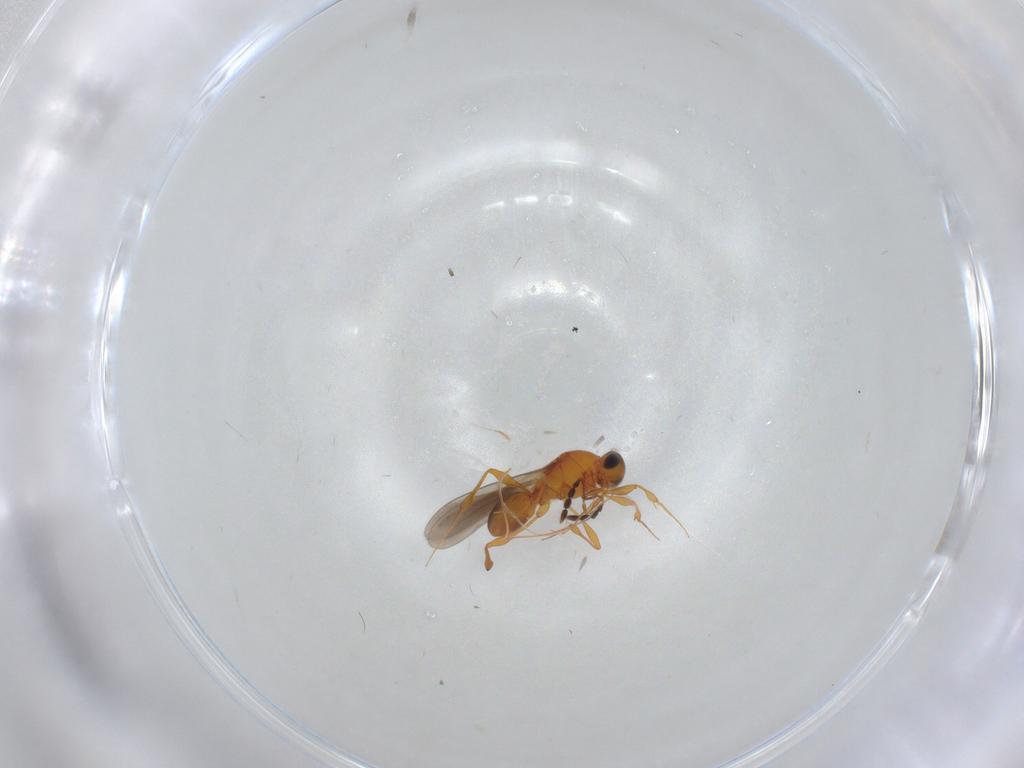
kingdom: Animalia
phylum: Arthropoda
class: Insecta
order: Hymenoptera
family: Platygastridae
